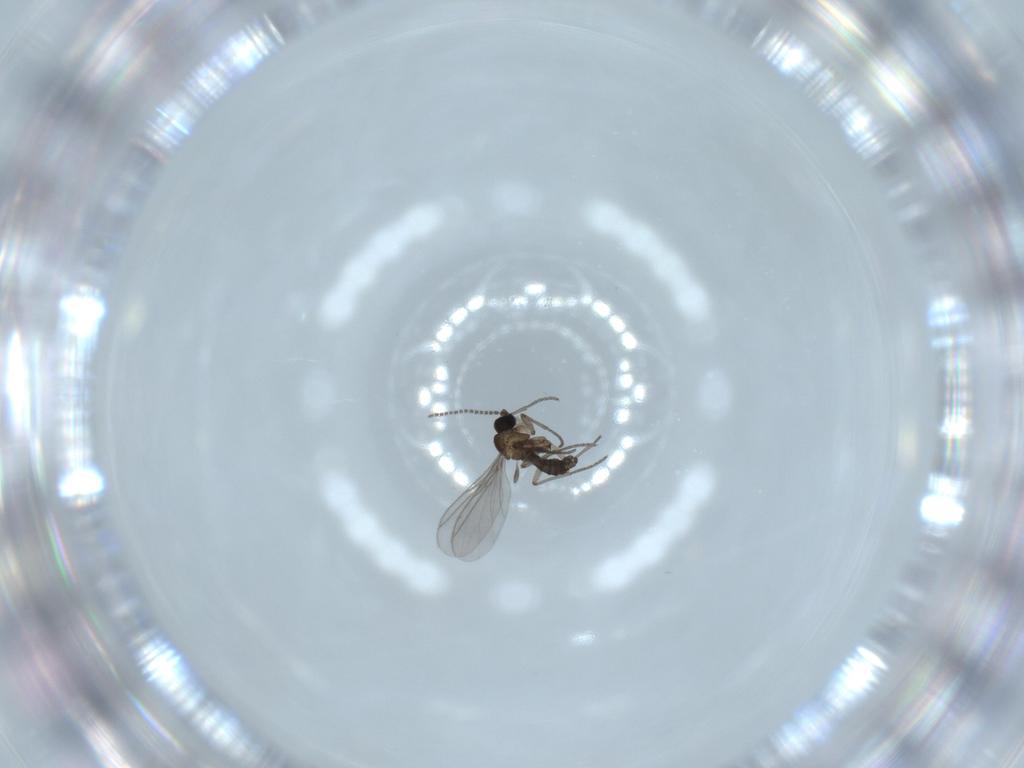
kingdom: Animalia
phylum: Arthropoda
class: Insecta
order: Diptera
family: Sciaridae
